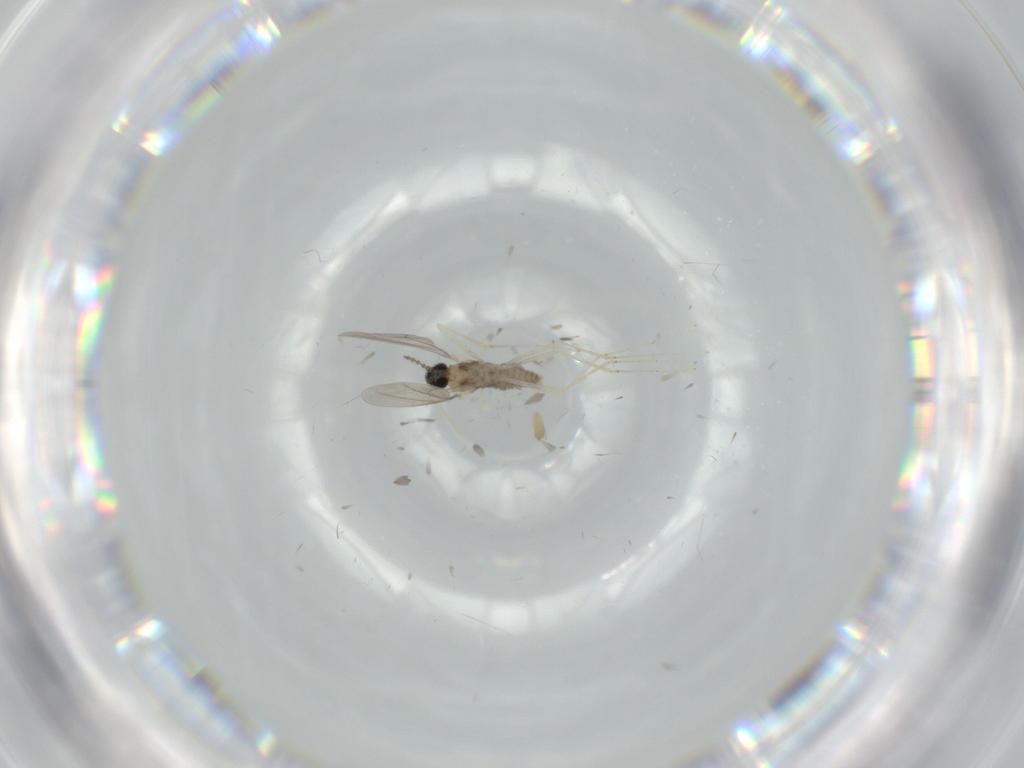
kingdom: Animalia
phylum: Arthropoda
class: Insecta
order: Diptera
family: Cecidomyiidae
